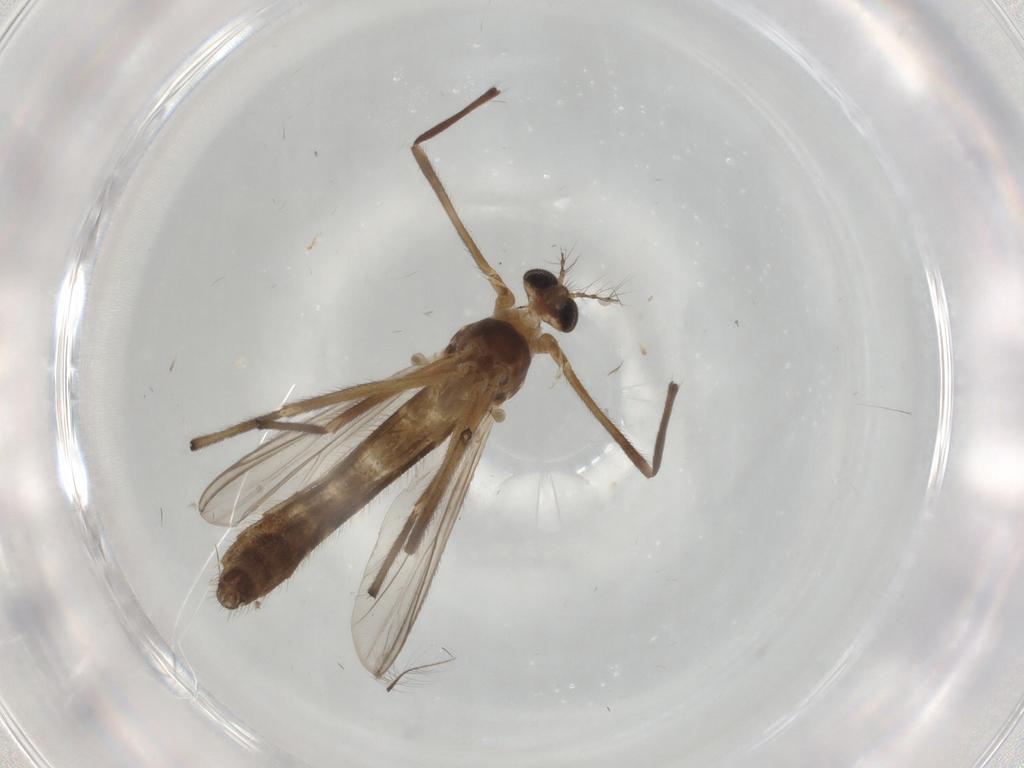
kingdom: Animalia
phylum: Arthropoda
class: Insecta
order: Diptera
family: Chironomidae
